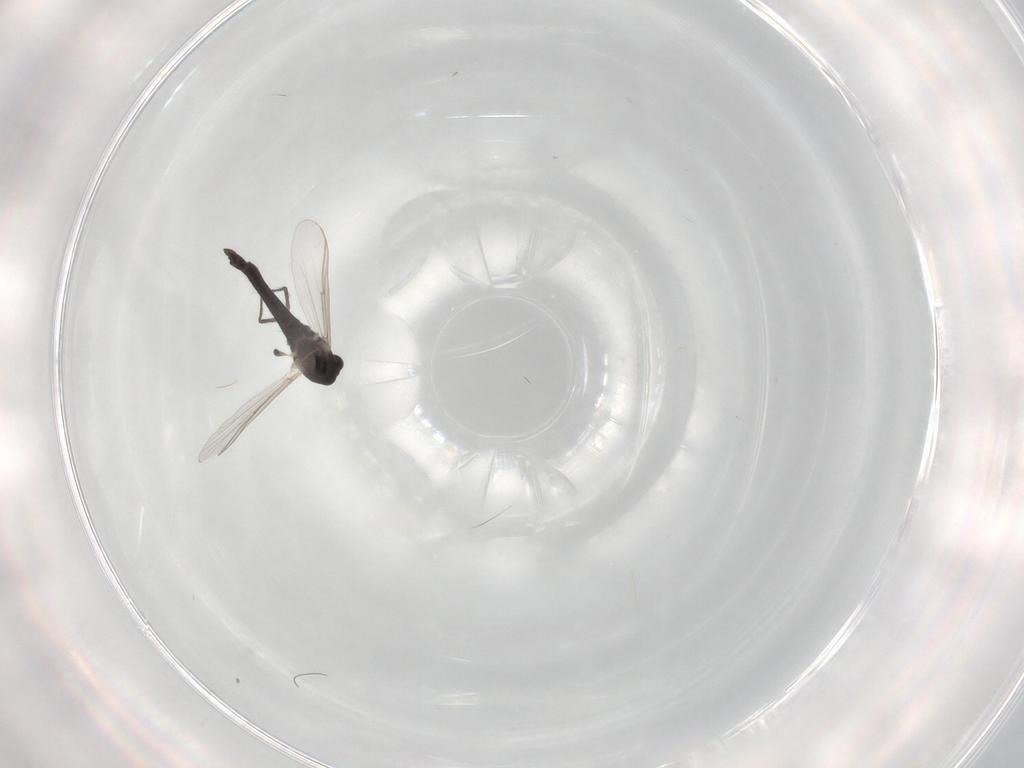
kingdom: Animalia
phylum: Arthropoda
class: Insecta
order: Diptera
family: Chironomidae
